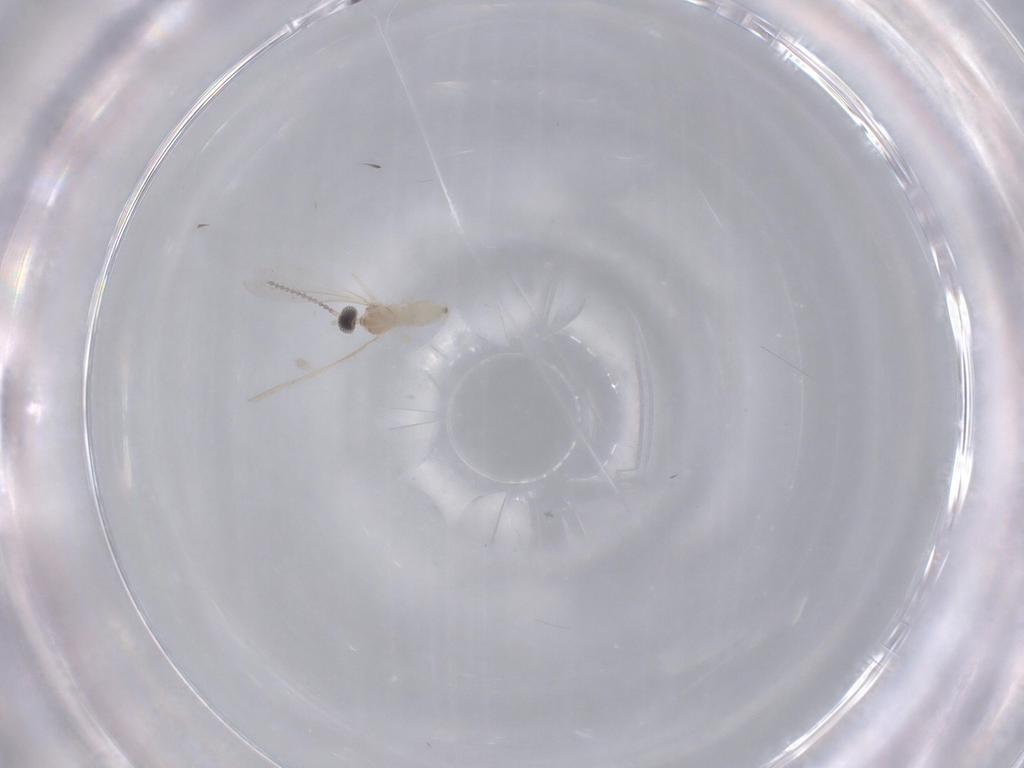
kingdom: Animalia
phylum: Arthropoda
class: Insecta
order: Diptera
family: Cecidomyiidae
